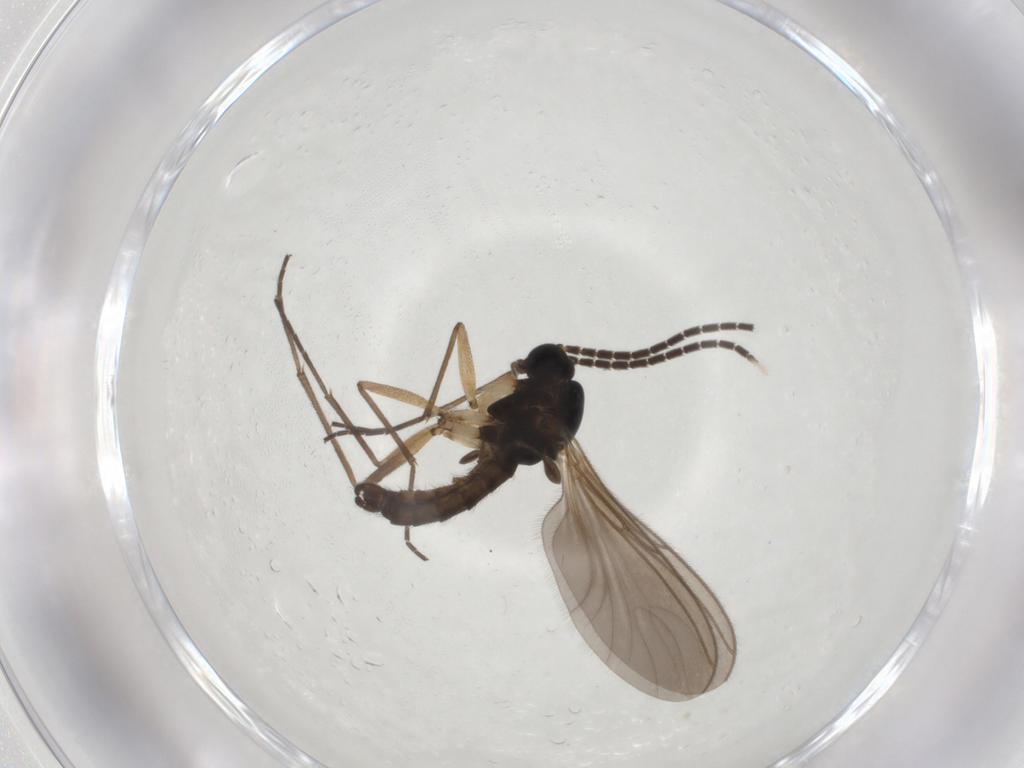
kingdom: Animalia
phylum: Arthropoda
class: Insecta
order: Diptera
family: Sciaridae
